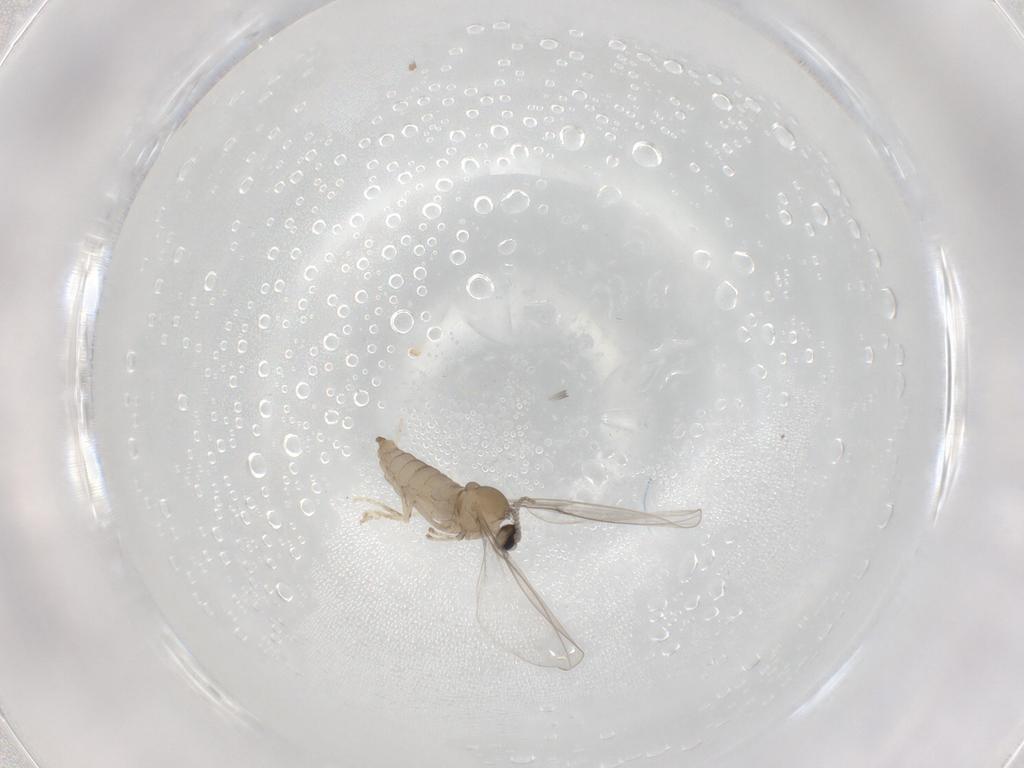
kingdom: Animalia
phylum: Arthropoda
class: Insecta
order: Diptera
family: Cecidomyiidae
